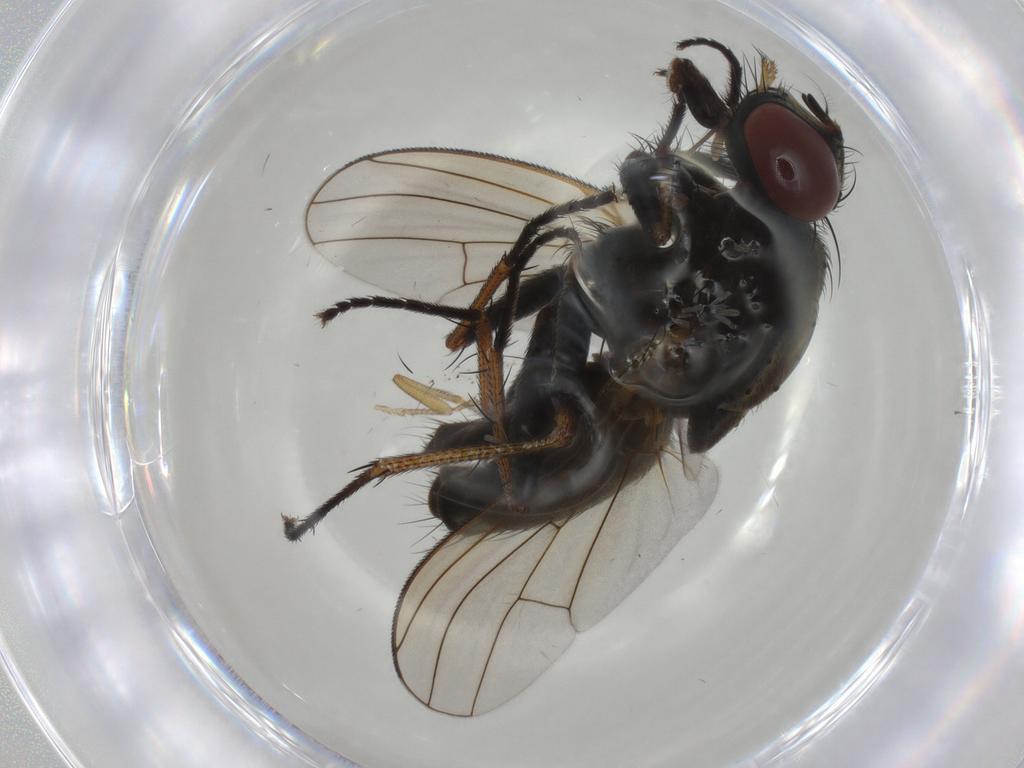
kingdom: Animalia
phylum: Arthropoda
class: Insecta
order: Diptera
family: Muscidae
